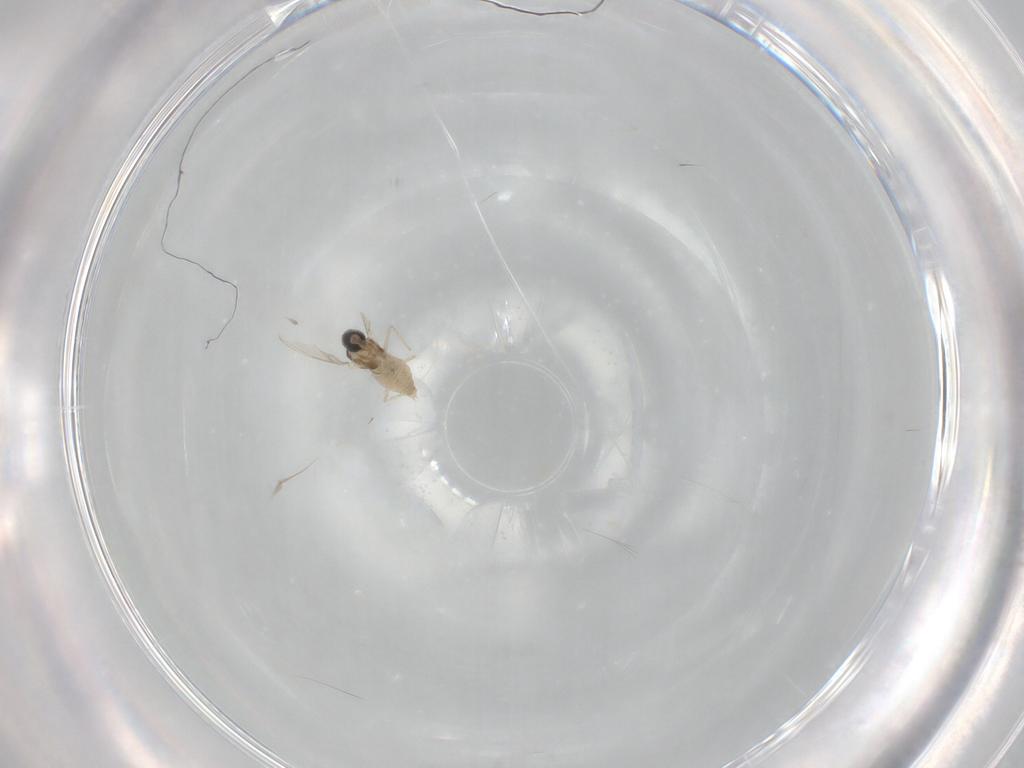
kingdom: Animalia
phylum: Arthropoda
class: Insecta
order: Diptera
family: Cecidomyiidae
